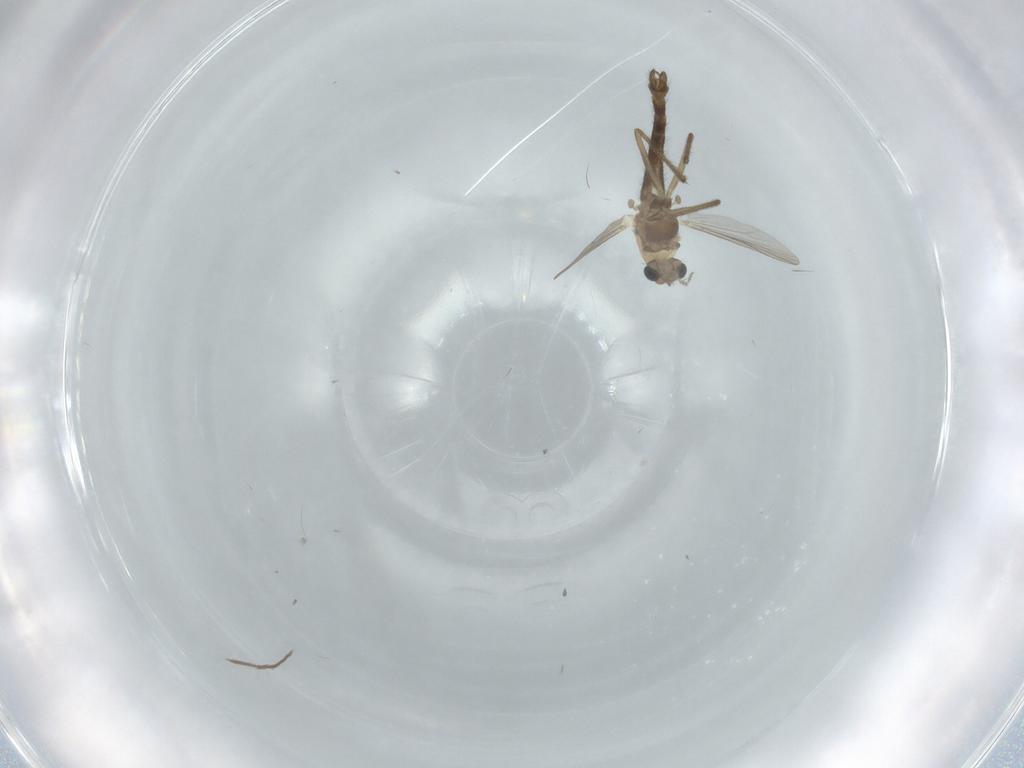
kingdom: Animalia
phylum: Arthropoda
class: Insecta
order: Diptera
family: Chironomidae
